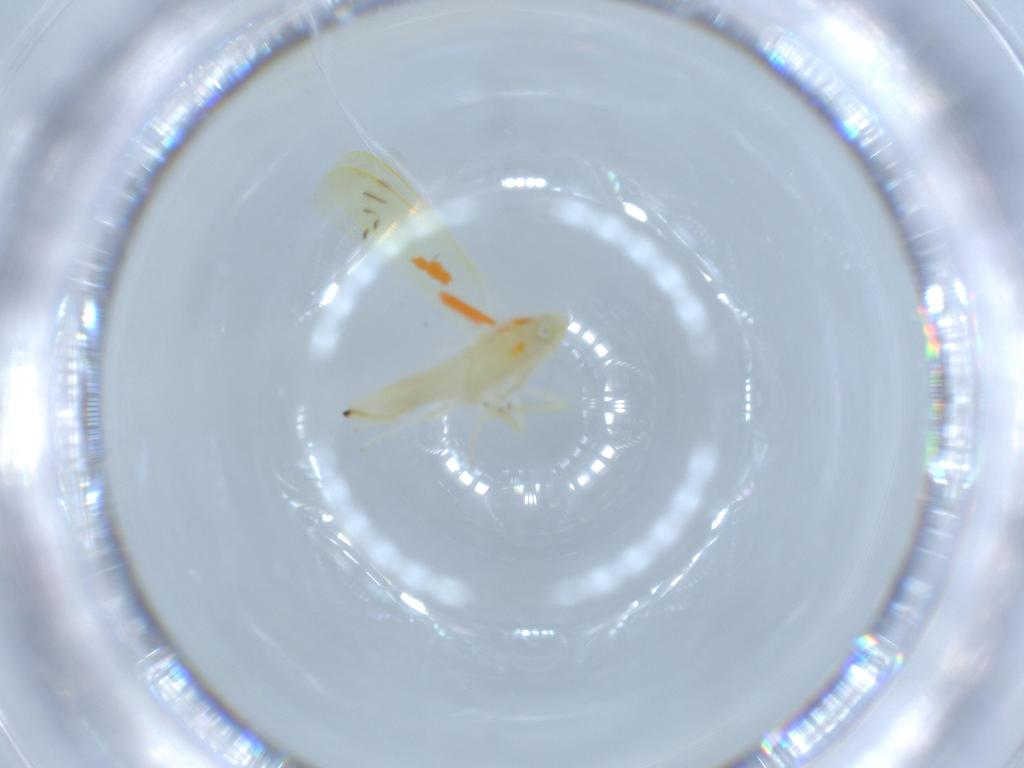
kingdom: Animalia
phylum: Arthropoda
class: Insecta
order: Hemiptera
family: Cicadellidae
